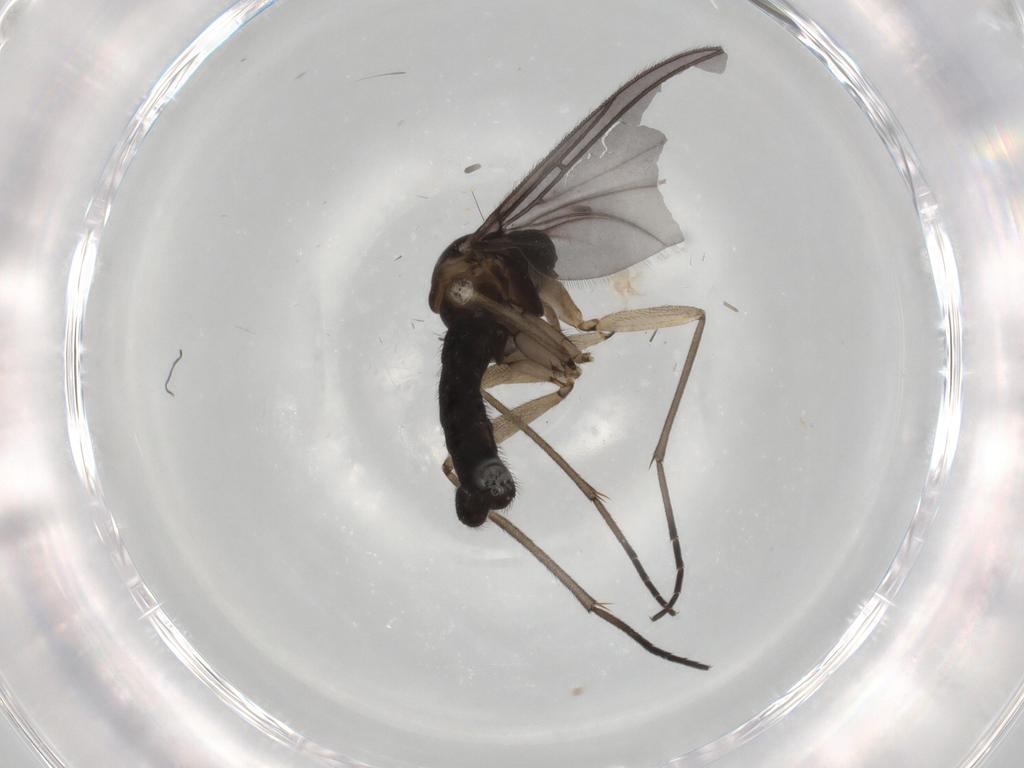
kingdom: Animalia
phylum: Arthropoda
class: Insecta
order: Diptera
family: Sciaridae
